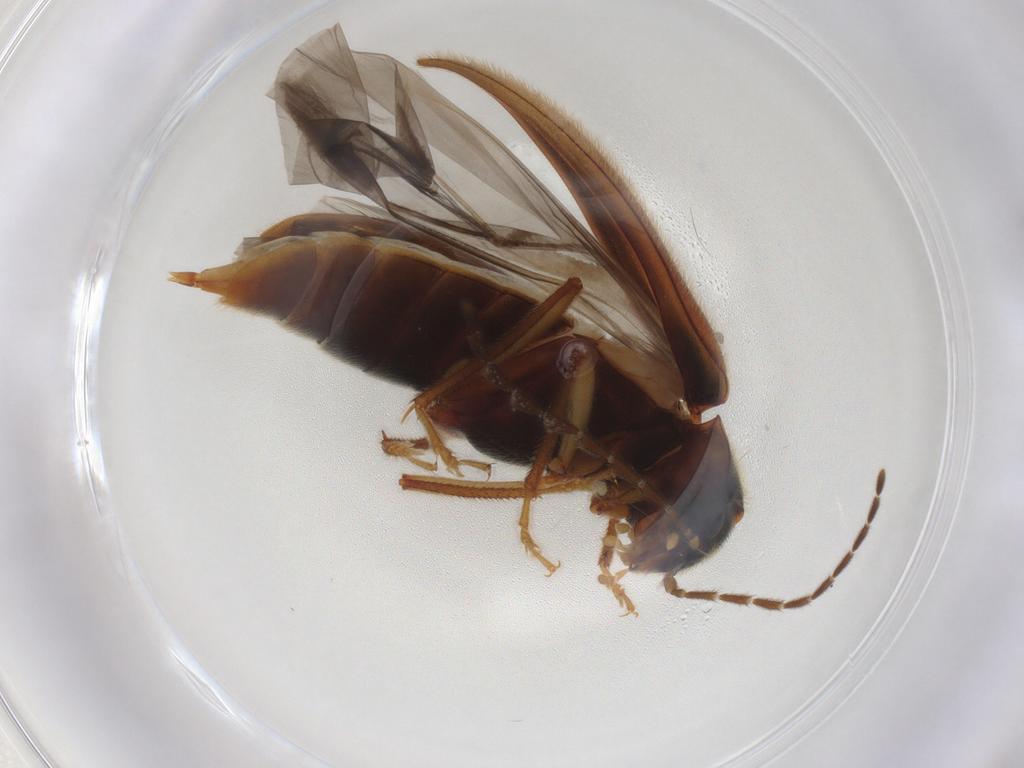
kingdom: Animalia
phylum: Arthropoda
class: Insecta
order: Coleoptera
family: Ptilodactylidae
